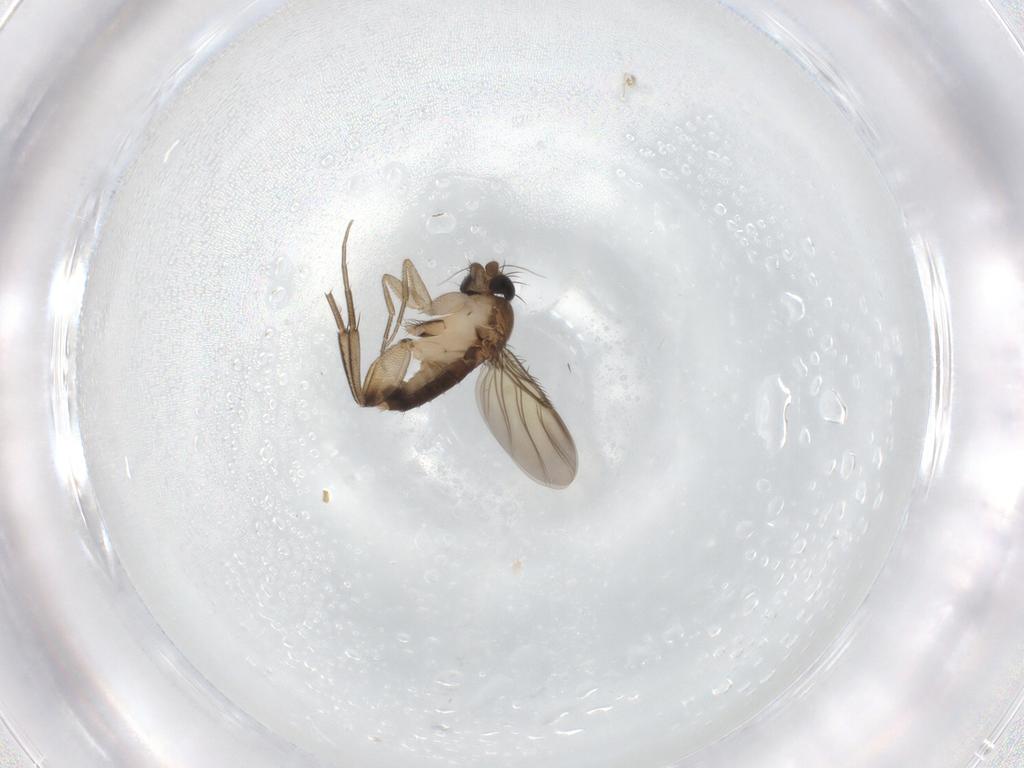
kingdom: Animalia
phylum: Arthropoda
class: Insecta
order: Diptera
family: Phoridae
